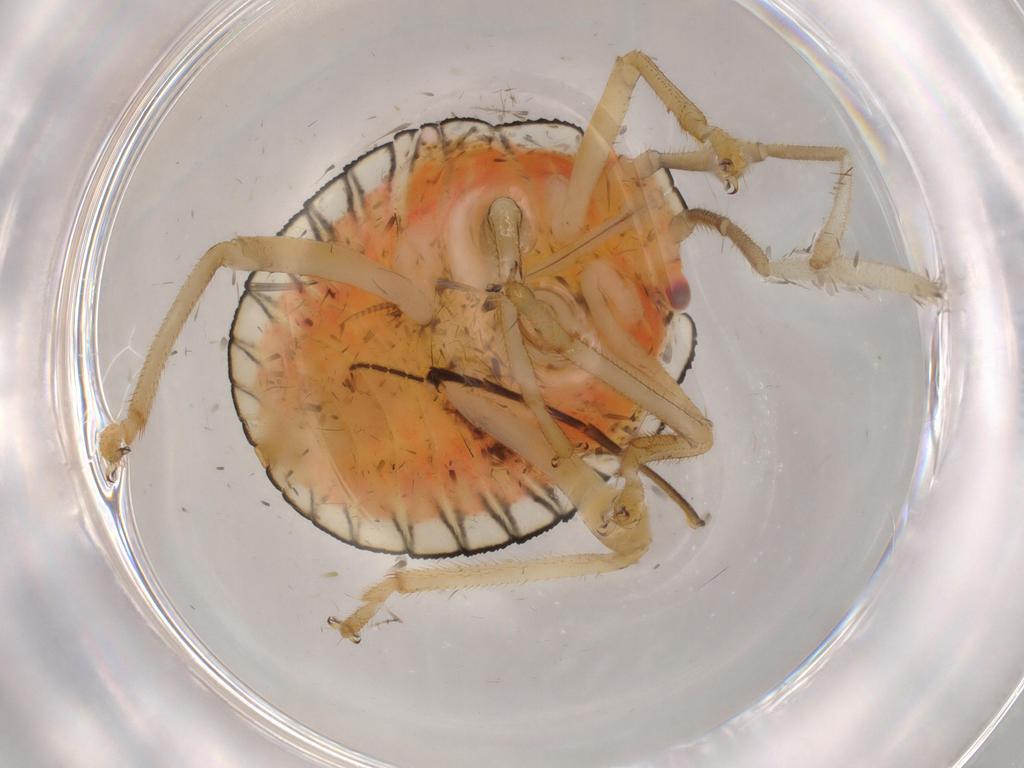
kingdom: Animalia
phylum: Arthropoda
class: Insecta
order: Hemiptera
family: Pentatomidae
